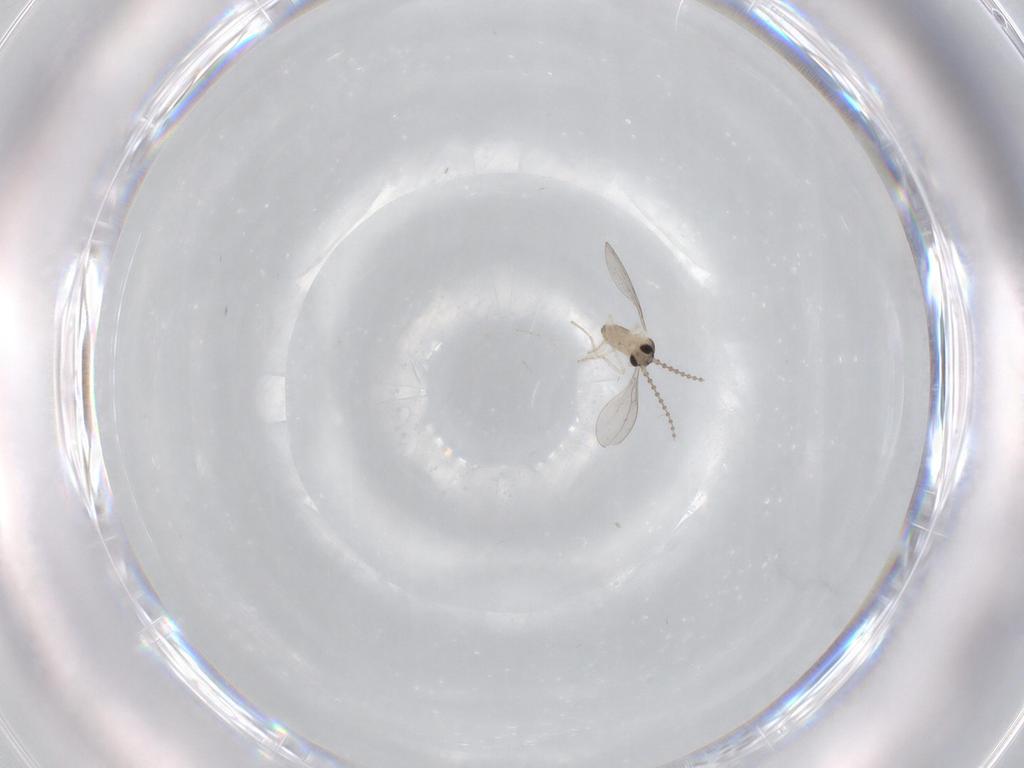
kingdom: Animalia
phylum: Arthropoda
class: Insecta
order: Diptera
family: Cecidomyiidae
